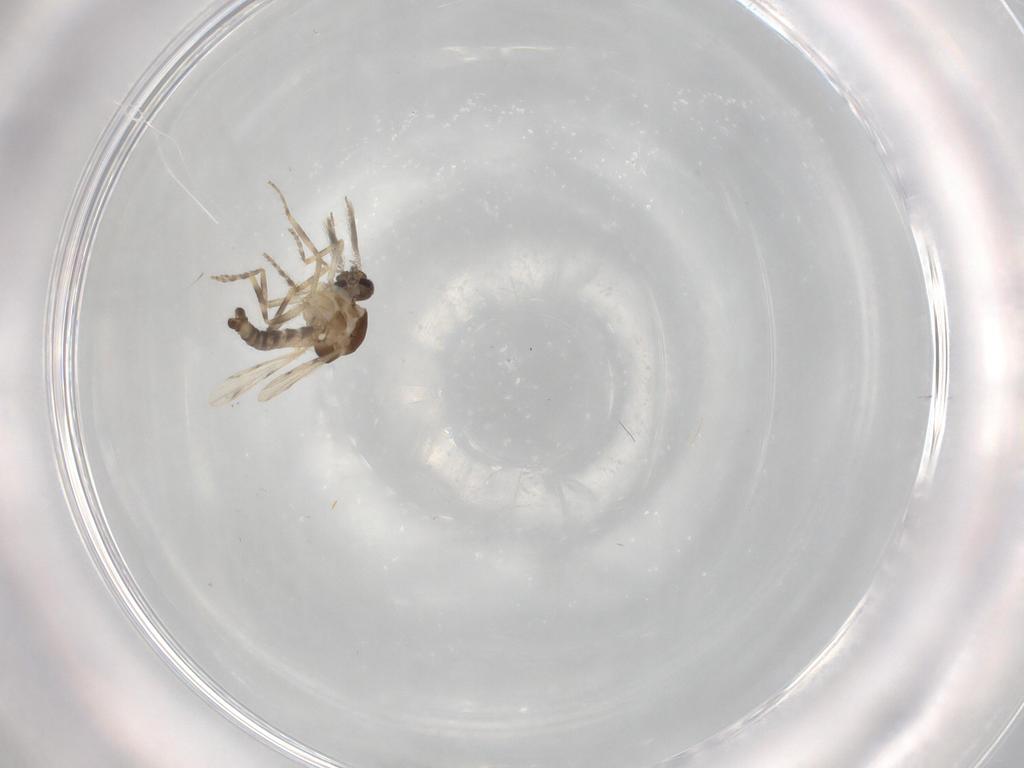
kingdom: Animalia
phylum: Arthropoda
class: Insecta
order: Diptera
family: Ceratopogonidae
